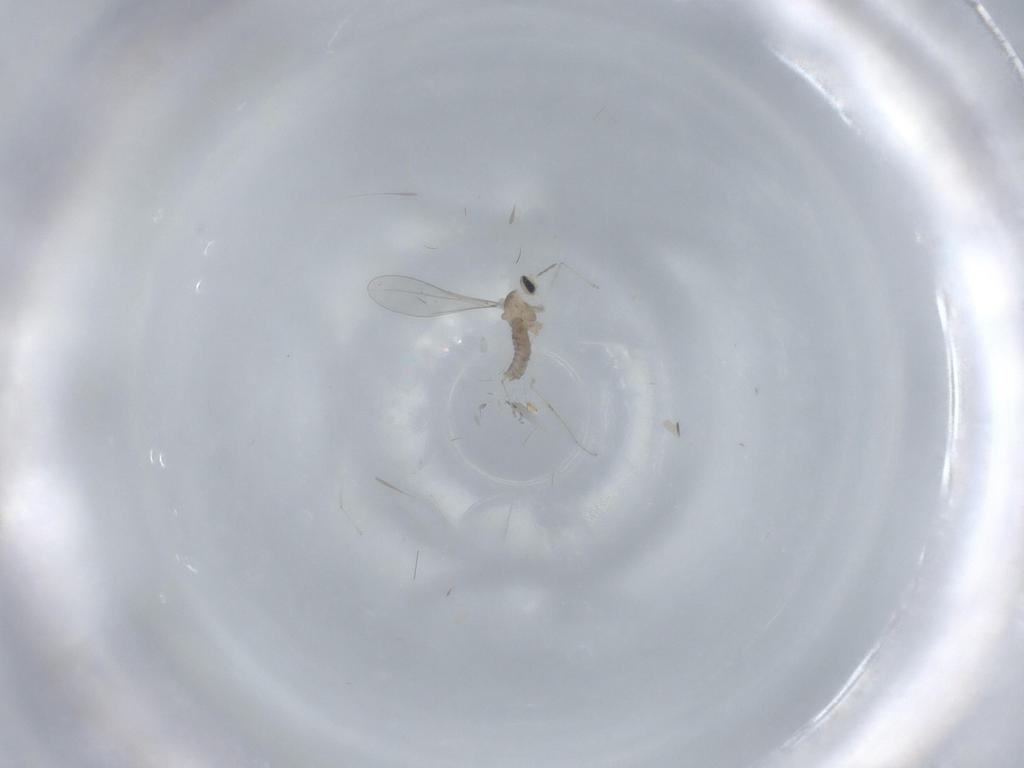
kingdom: Animalia
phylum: Arthropoda
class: Insecta
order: Diptera
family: Cecidomyiidae
